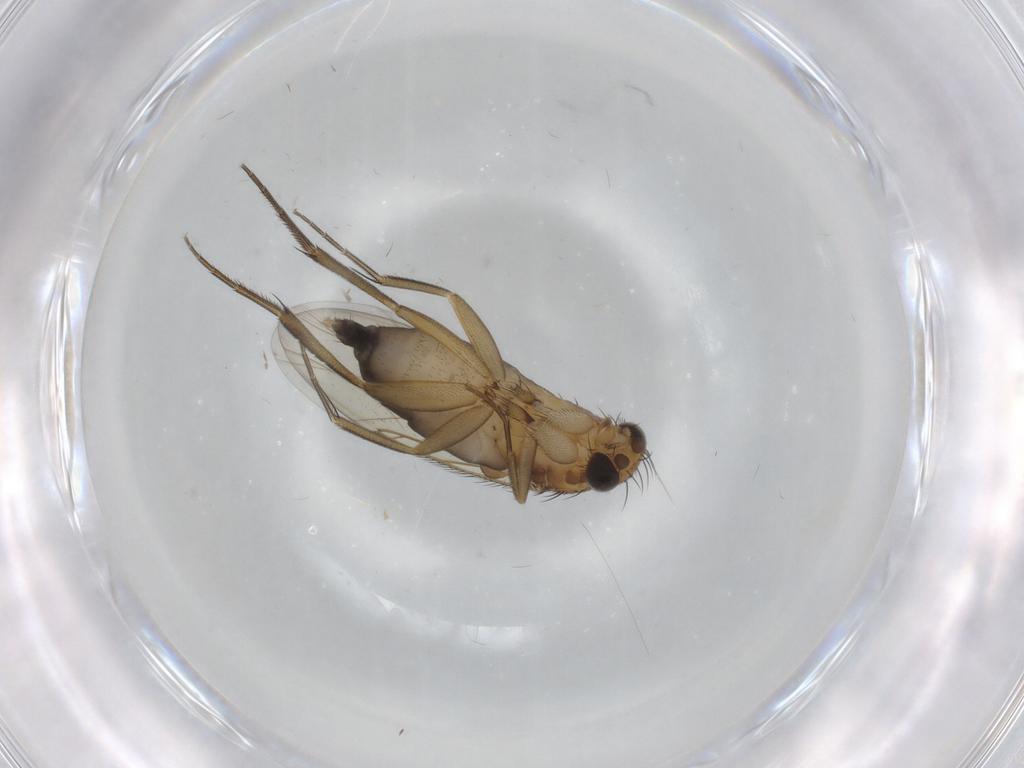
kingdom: Animalia
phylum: Arthropoda
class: Insecta
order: Diptera
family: Phoridae
